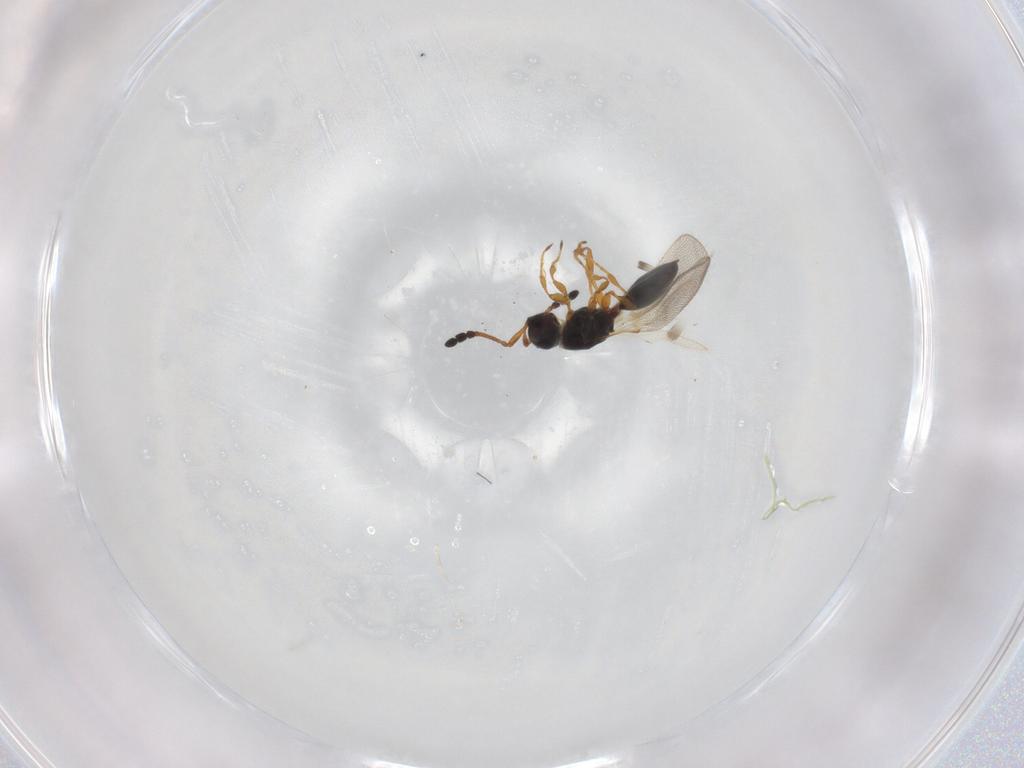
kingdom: Animalia
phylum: Arthropoda
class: Insecta
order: Hymenoptera
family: Diapriidae
